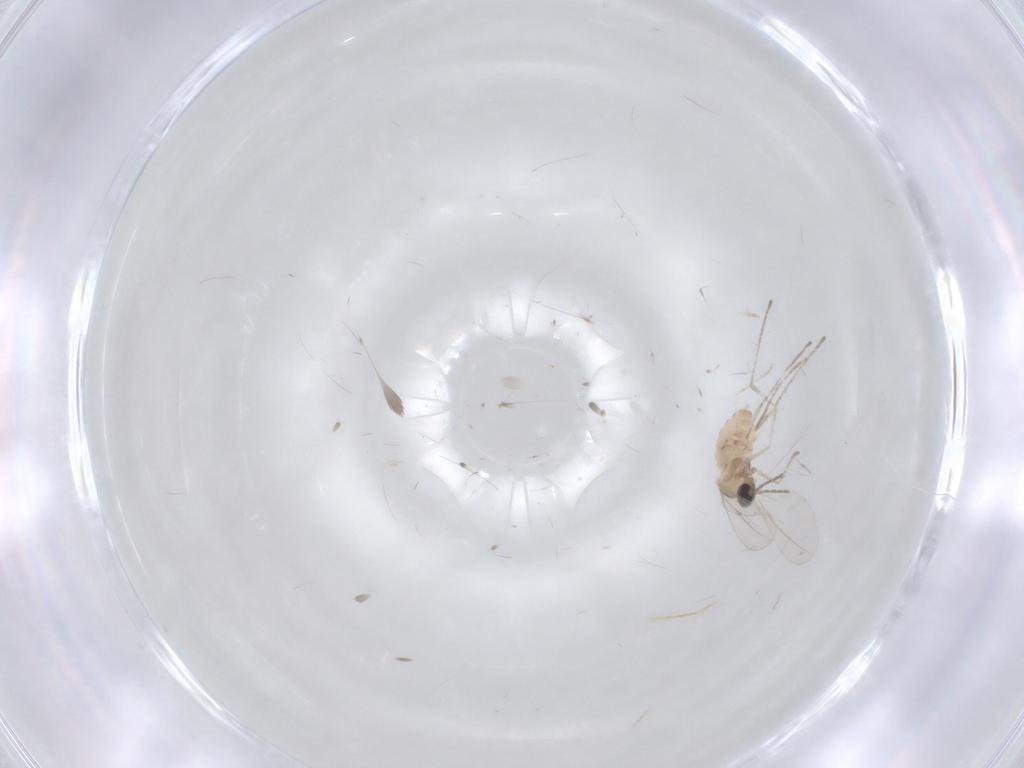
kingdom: Animalia
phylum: Arthropoda
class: Insecta
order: Diptera
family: Cecidomyiidae
